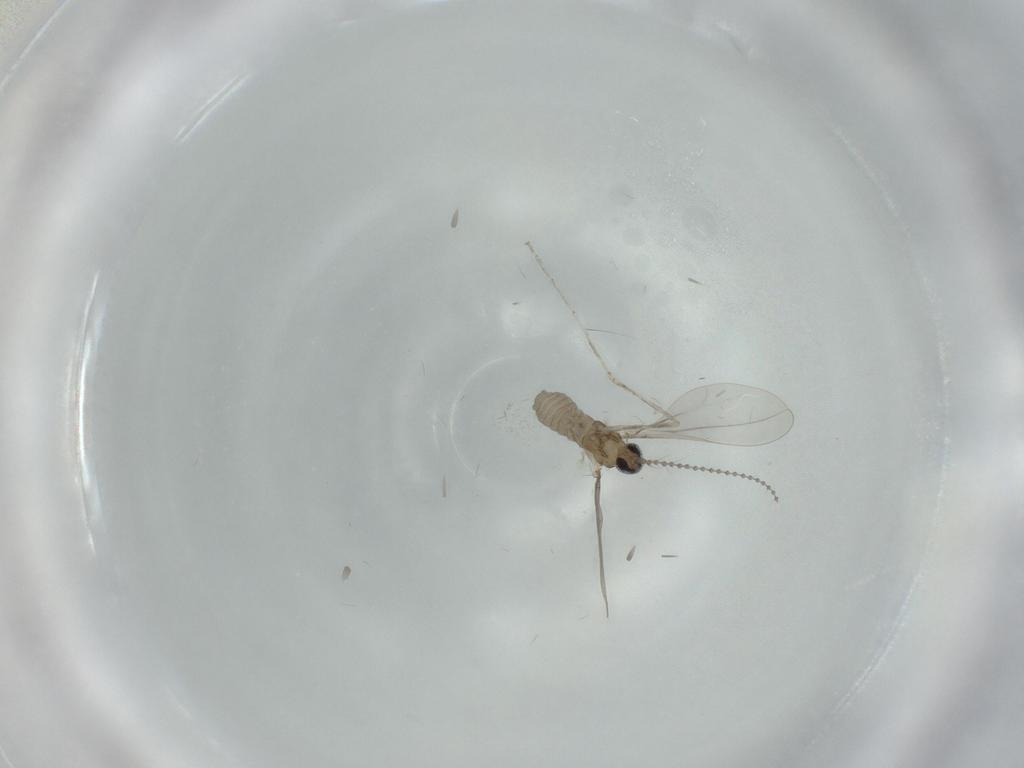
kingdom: Animalia
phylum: Arthropoda
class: Insecta
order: Diptera
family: Cecidomyiidae
